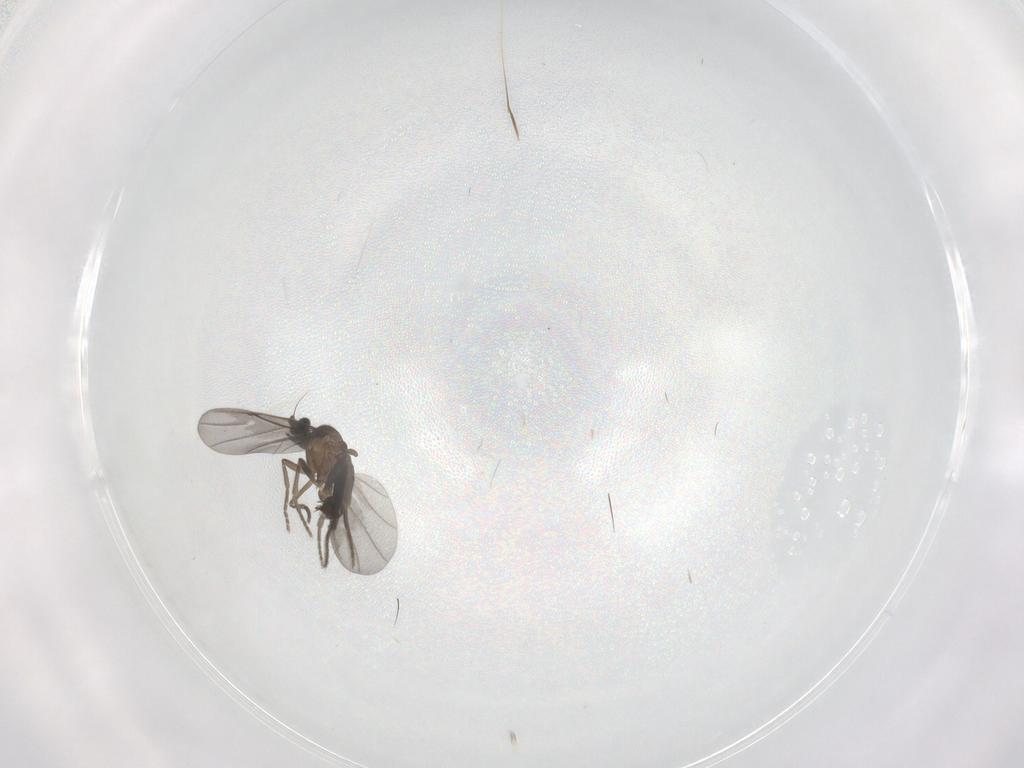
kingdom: Animalia
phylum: Arthropoda
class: Insecta
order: Diptera
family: Phoridae
